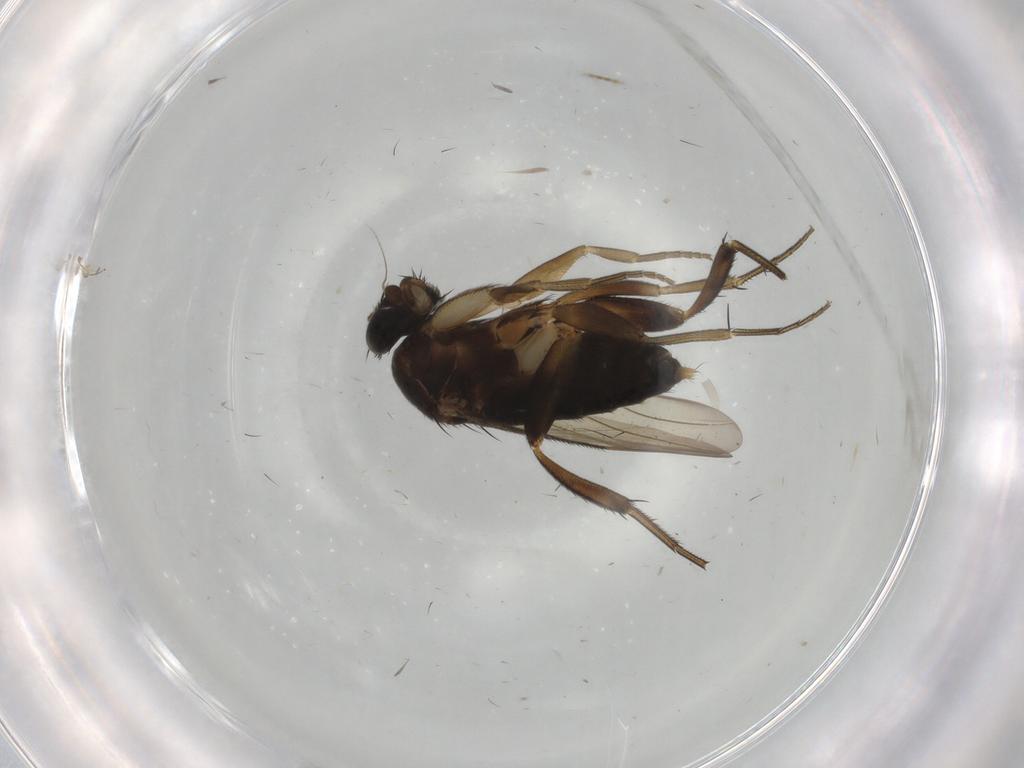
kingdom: Animalia
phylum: Arthropoda
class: Insecta
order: Diptera
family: Phoridae
